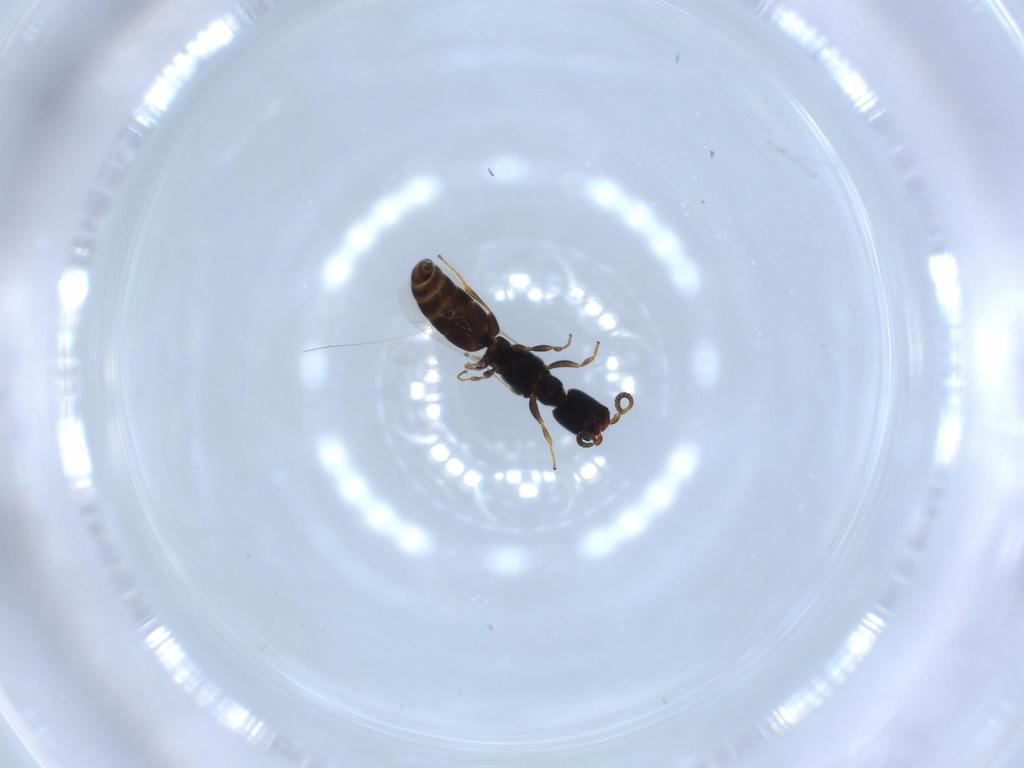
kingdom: Animalia
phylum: Arthropoda
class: Insecta
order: Hymenoptera
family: Bethylidae
